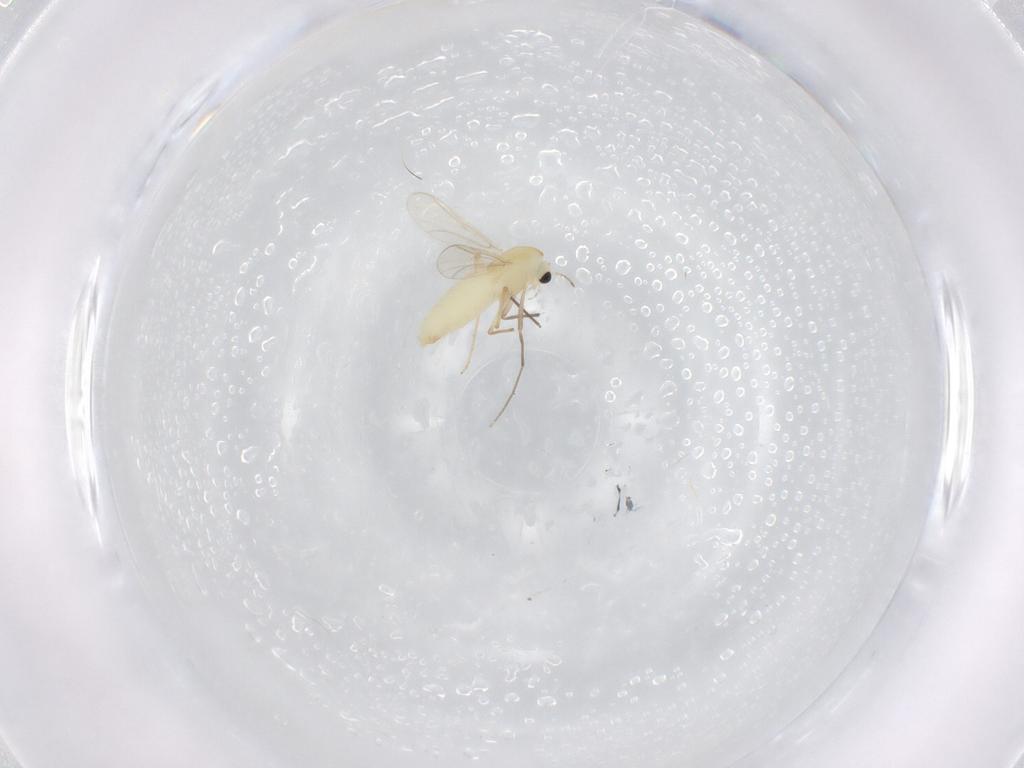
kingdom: Animalia
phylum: Arthropoda
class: Insecta
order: Diptera
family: Chironomidae
